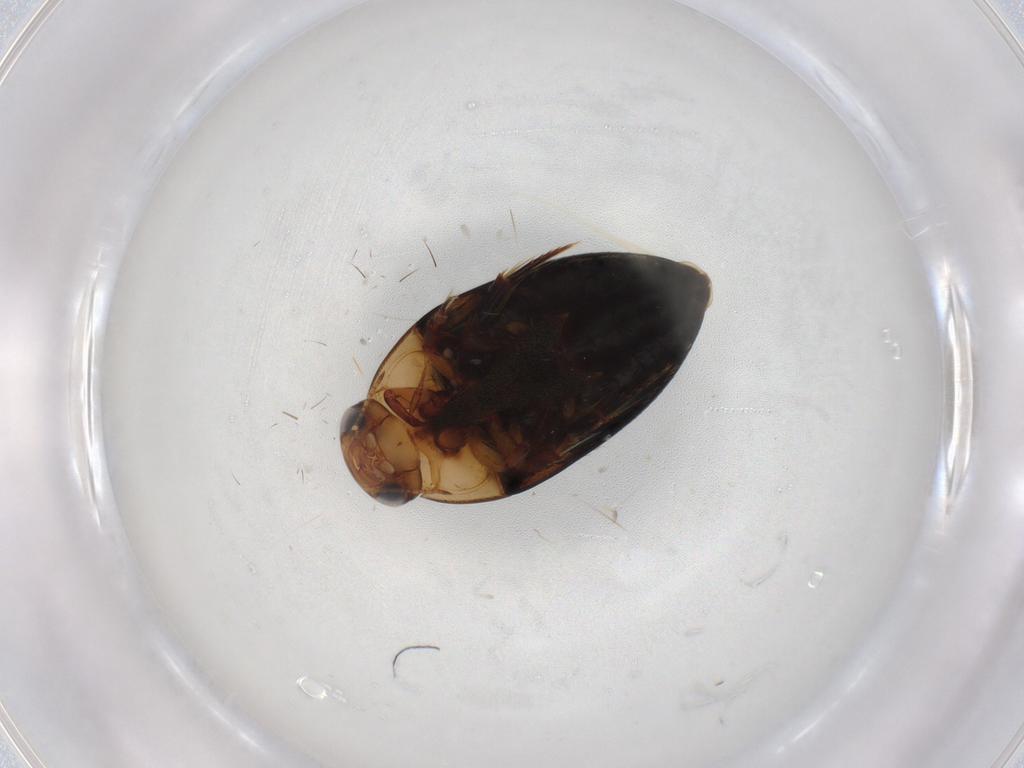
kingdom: Animalia
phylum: Arthropoda
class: Insecta
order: Coleoptera
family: Noteridae
